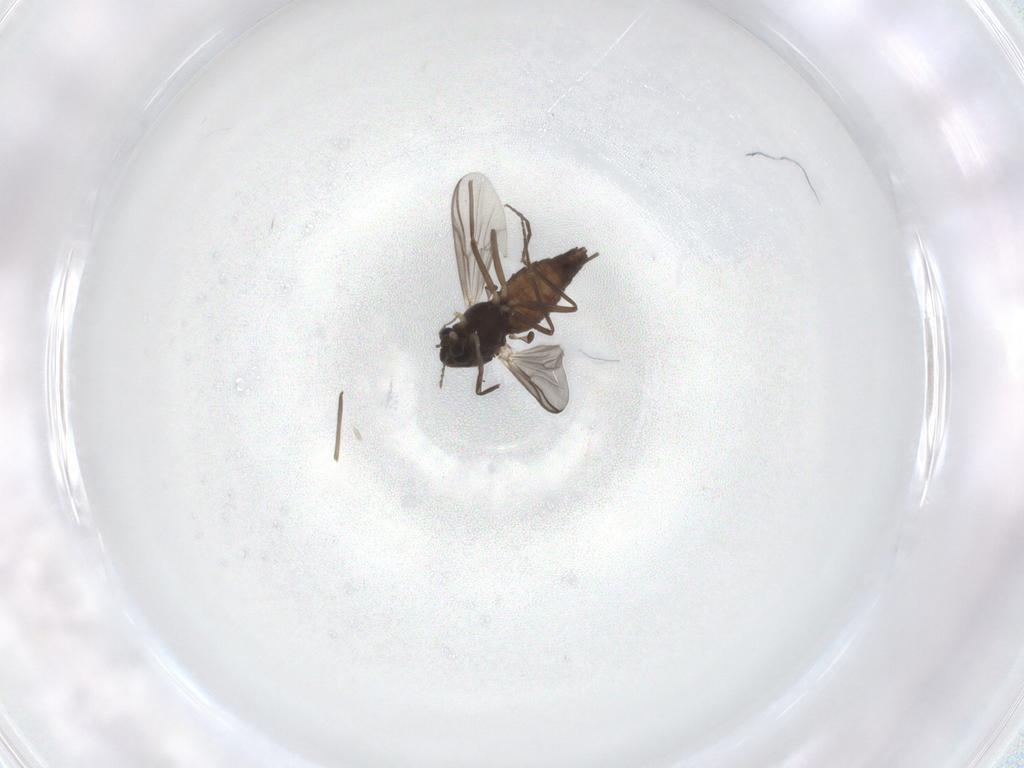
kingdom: Animalia
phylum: Arthropoda
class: Insecta
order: Diptera
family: Chironomidae
